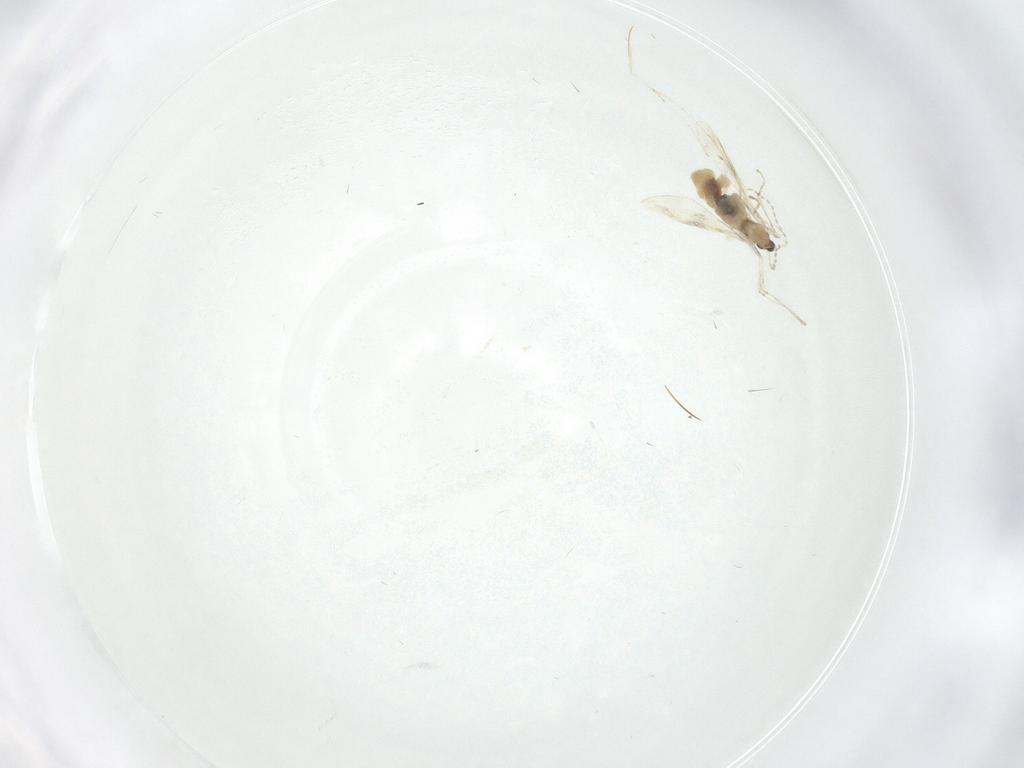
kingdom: Animalia
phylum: Arthropoda
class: Insecta
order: Diptera
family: Cecidomyiidae
